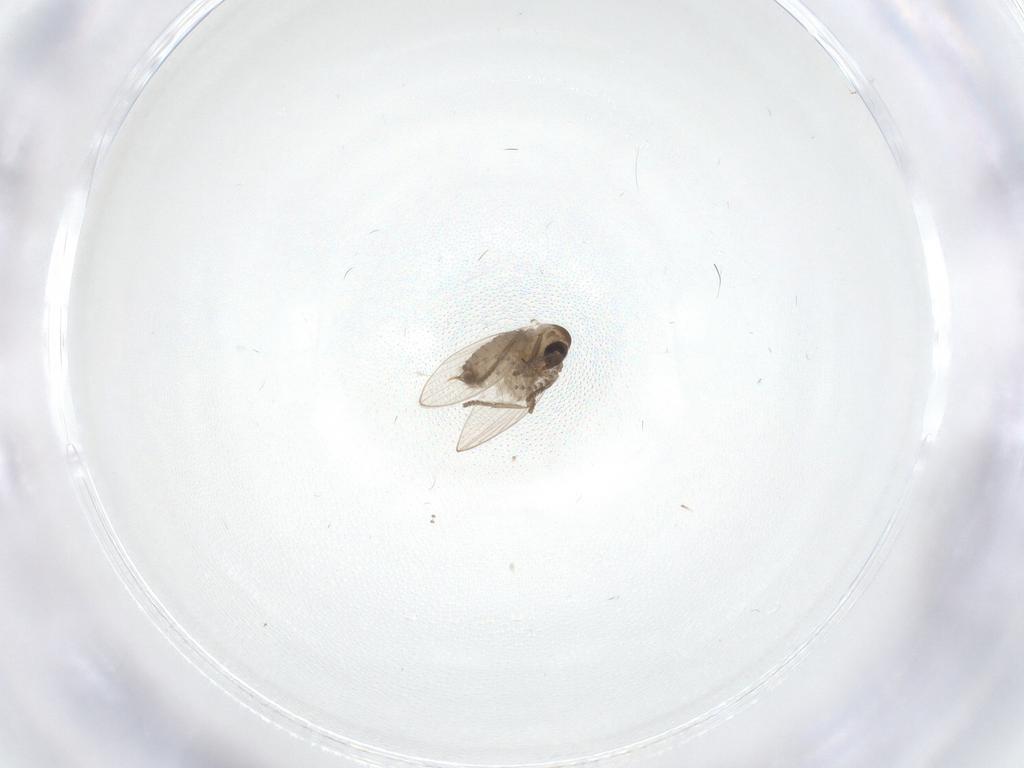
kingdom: Animalia
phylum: Arthropoda
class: Insecta
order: Diptera
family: Psychodidae
